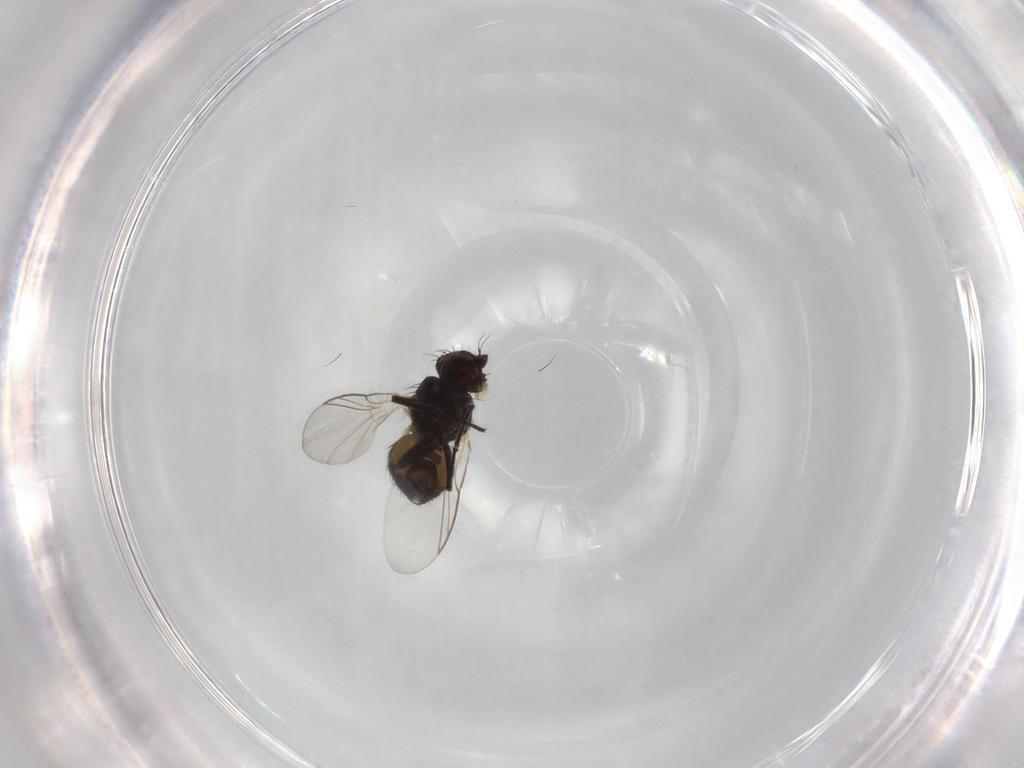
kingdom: Animalia
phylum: Arthropoda
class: Insecta
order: Diptera
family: Agromyzidae
